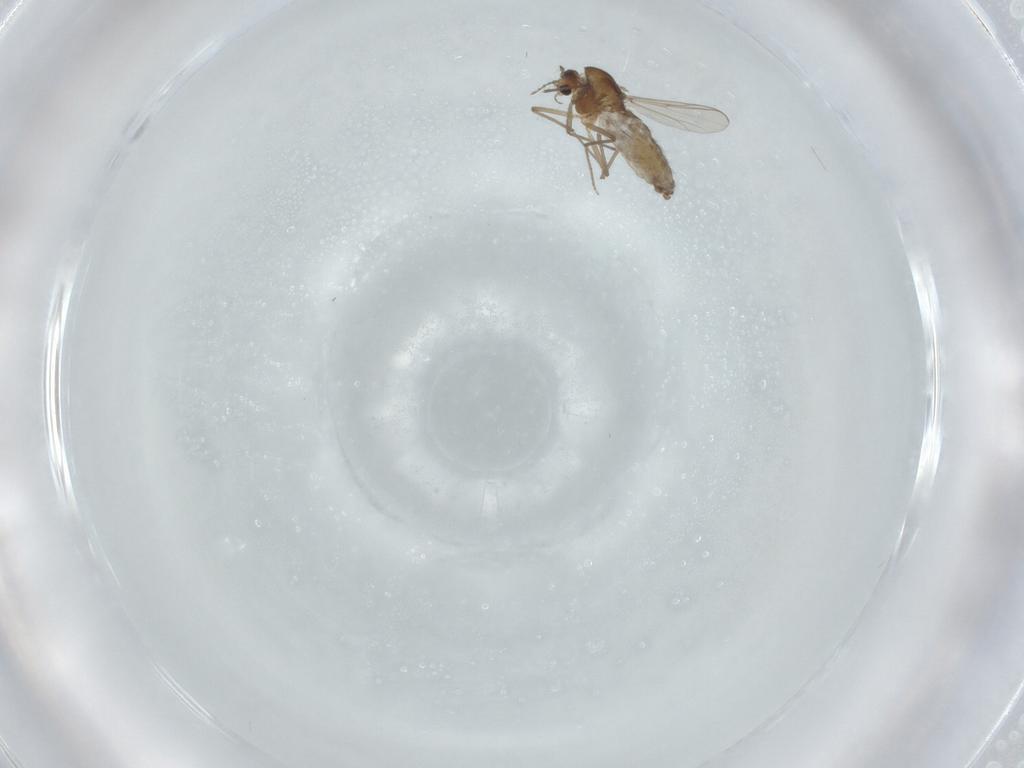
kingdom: Animalia
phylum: Arthropoda
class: Insecta
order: Diptera
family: Chironomidae
